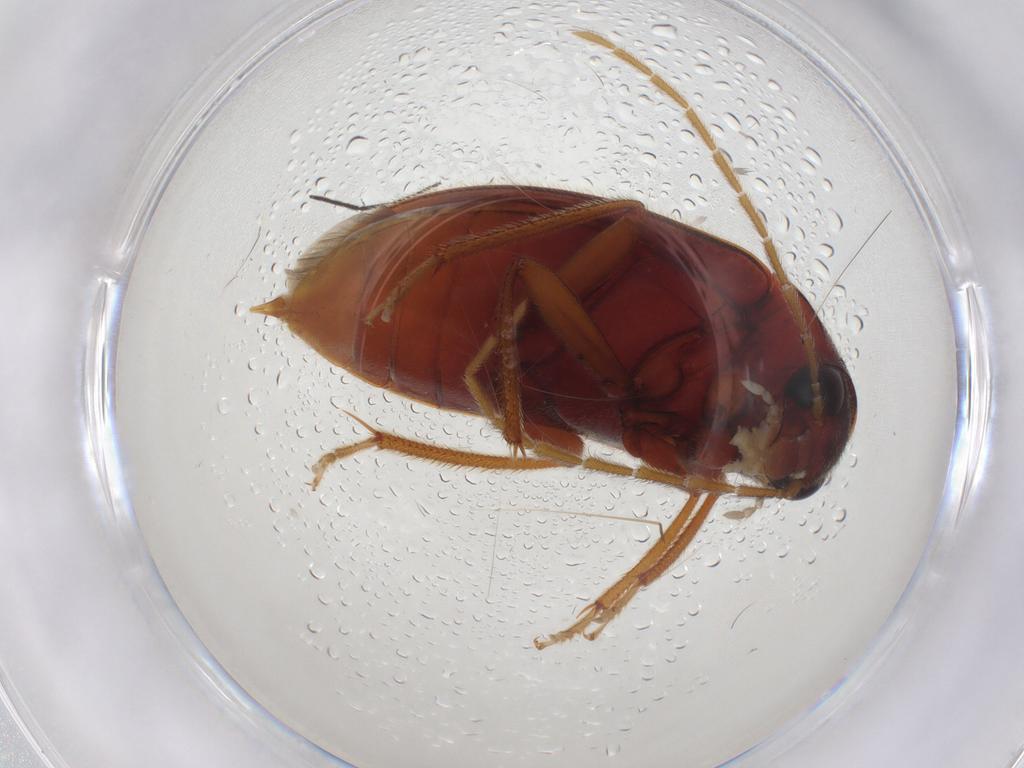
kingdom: Animalia
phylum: Arthropoda
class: Insecta
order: Coleoptera
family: Ptilodactylidae
